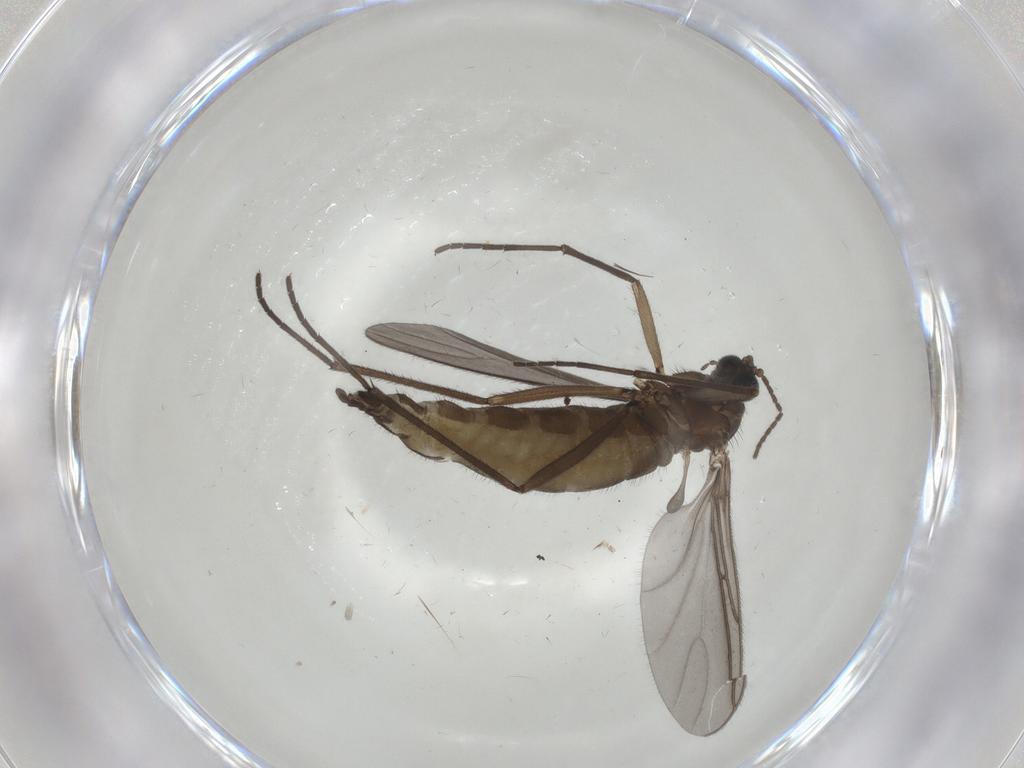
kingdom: Animalia
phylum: Arthropoda
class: Insecta
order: Diptera
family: Sciaridae
